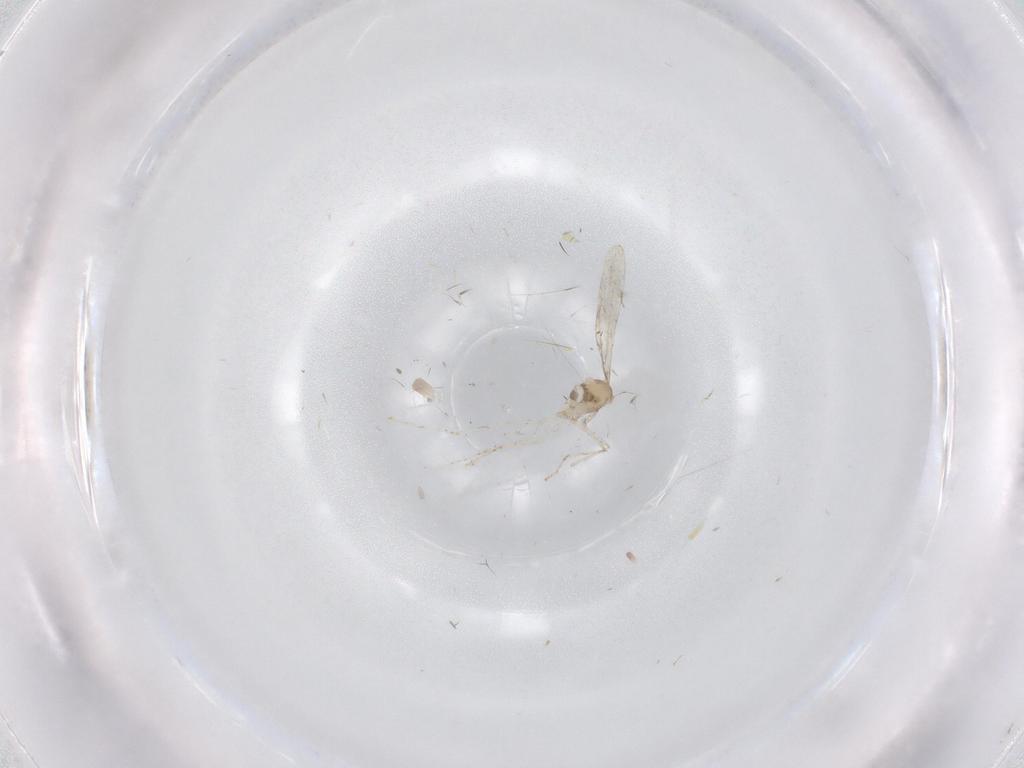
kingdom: Animalia
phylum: Arthropoda
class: Insecta
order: Diptera
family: Cecidomyiidae
